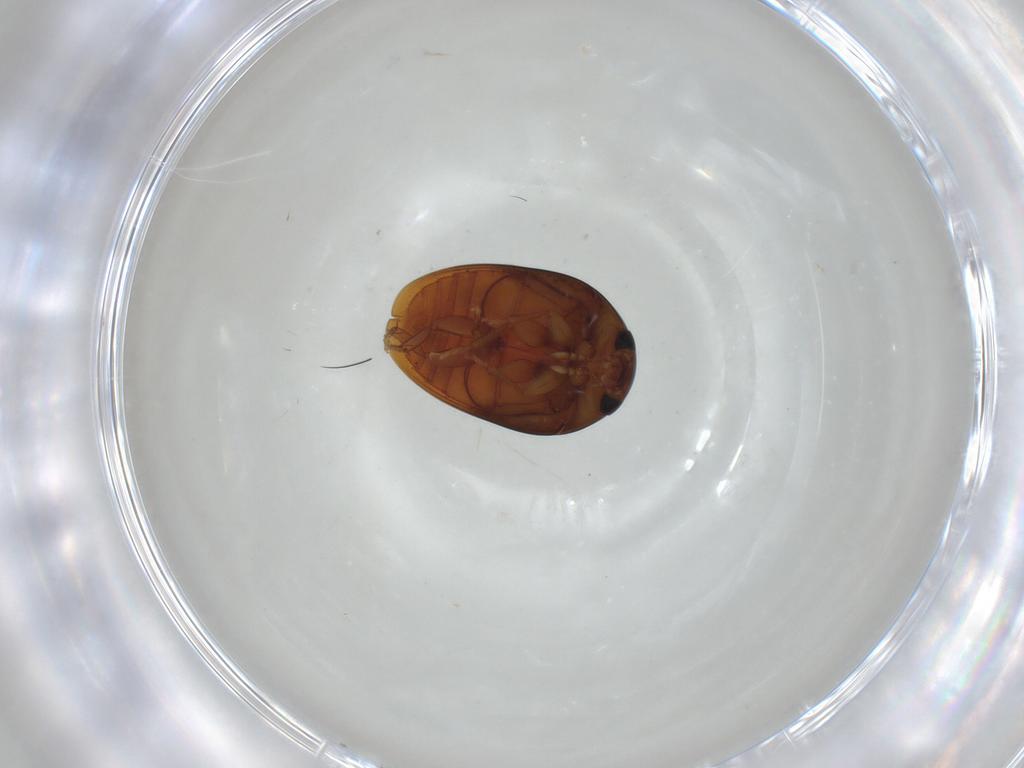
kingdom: Animalia
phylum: Arthropoda
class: Insecta
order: Coleoptera
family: Phalacridae
